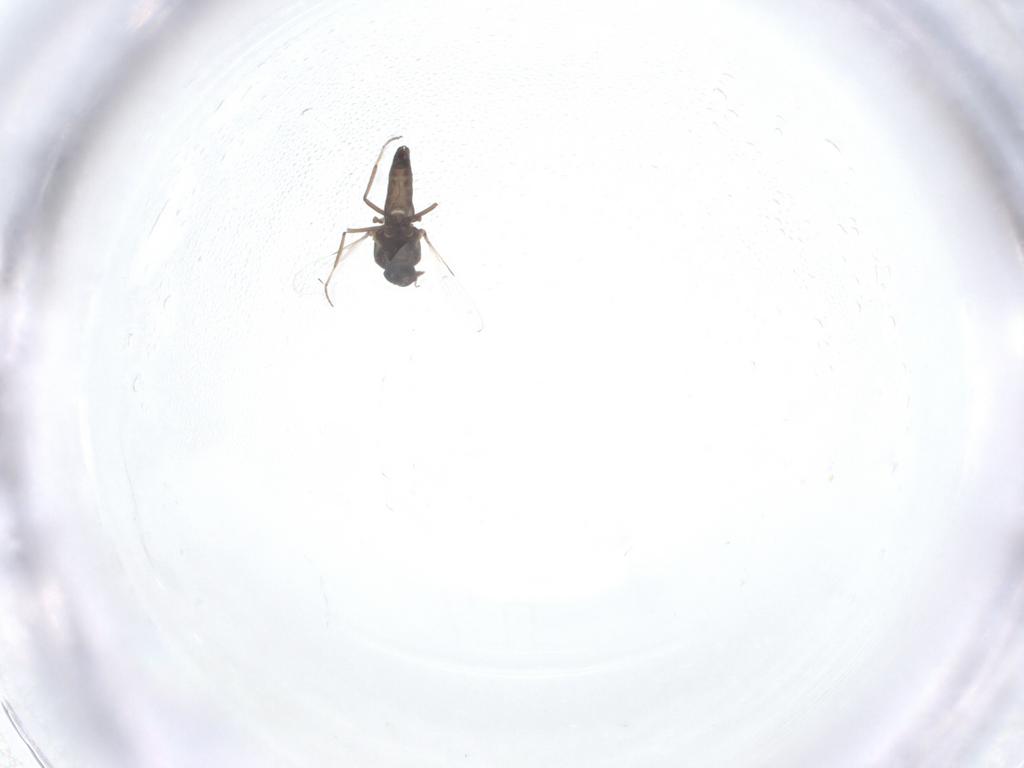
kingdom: Animalia
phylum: Arthropoda
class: Insecta
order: Diptera
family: Ceratopogonidae
